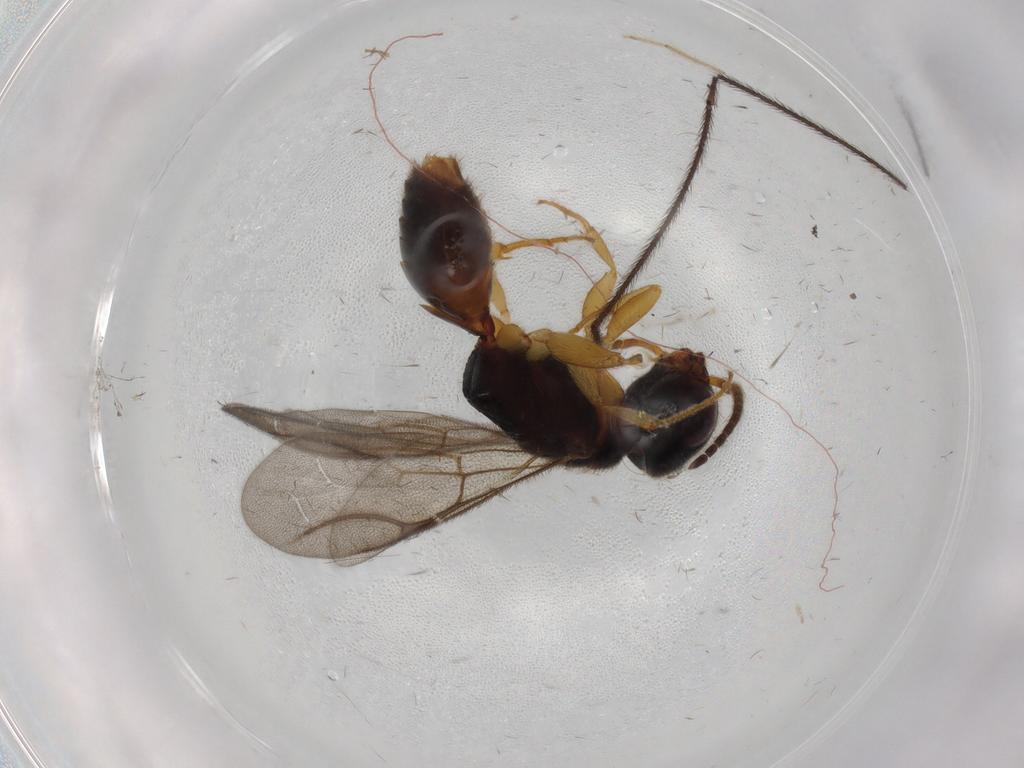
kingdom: Animalia
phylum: Arthropoda
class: Insecta
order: Hymenoptera
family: Bethylidae
